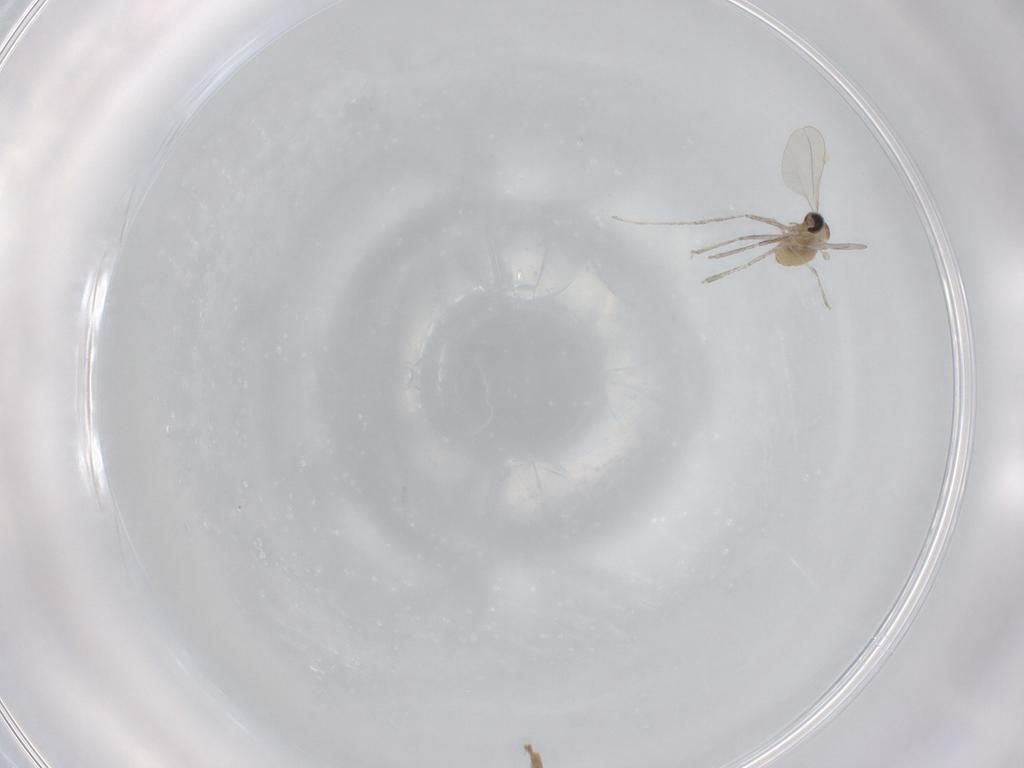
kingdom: Animalia
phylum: Arthropoda
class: Insecta
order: Diptera
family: Cecidomyiidae
